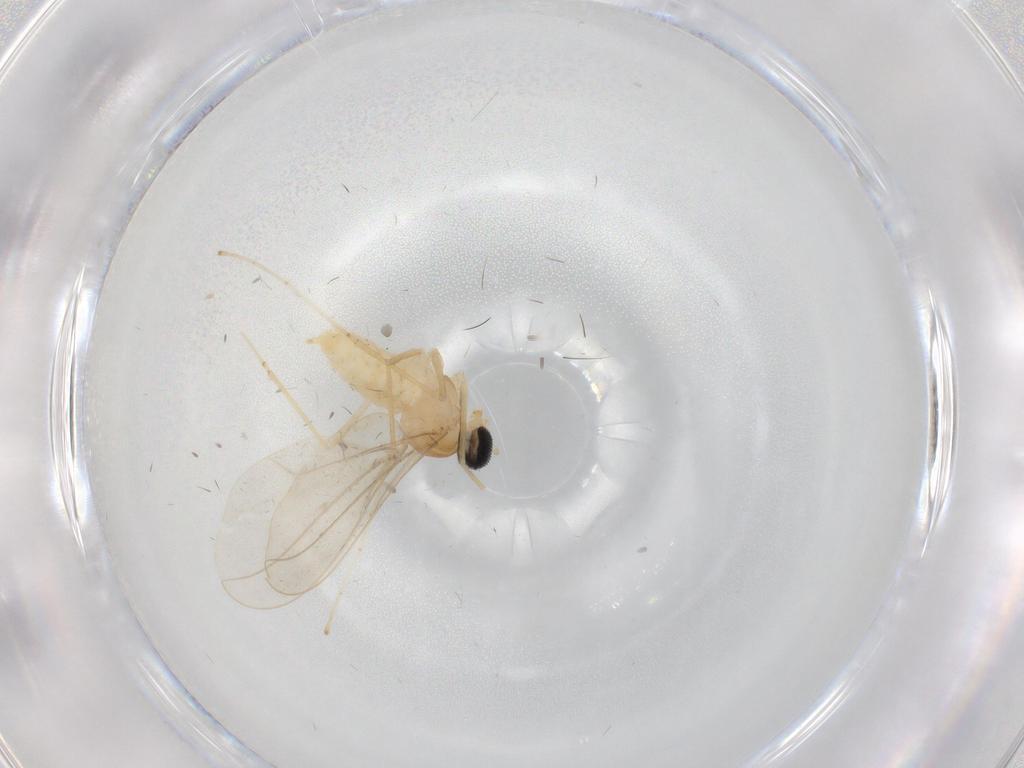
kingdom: Animalia
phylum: Arthropoda
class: Insecta
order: Diptera
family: Cecidomyiidae
